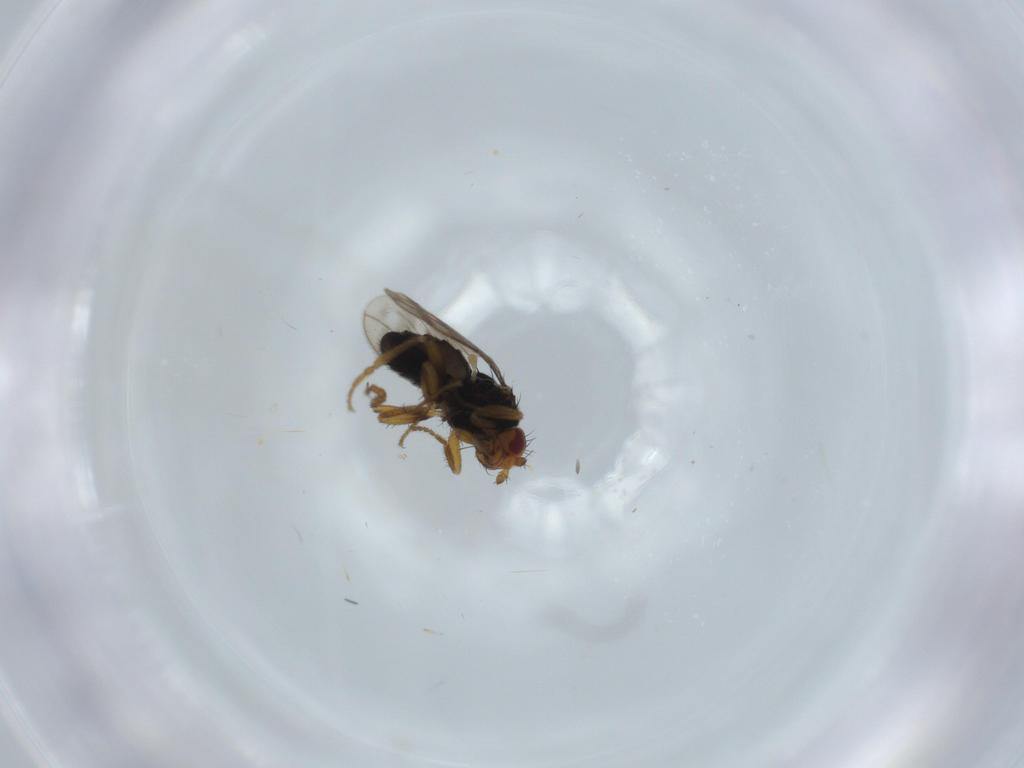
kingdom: Animalia
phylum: Arthropoda
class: Insecta
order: Diptera
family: Sphaeroceridae
